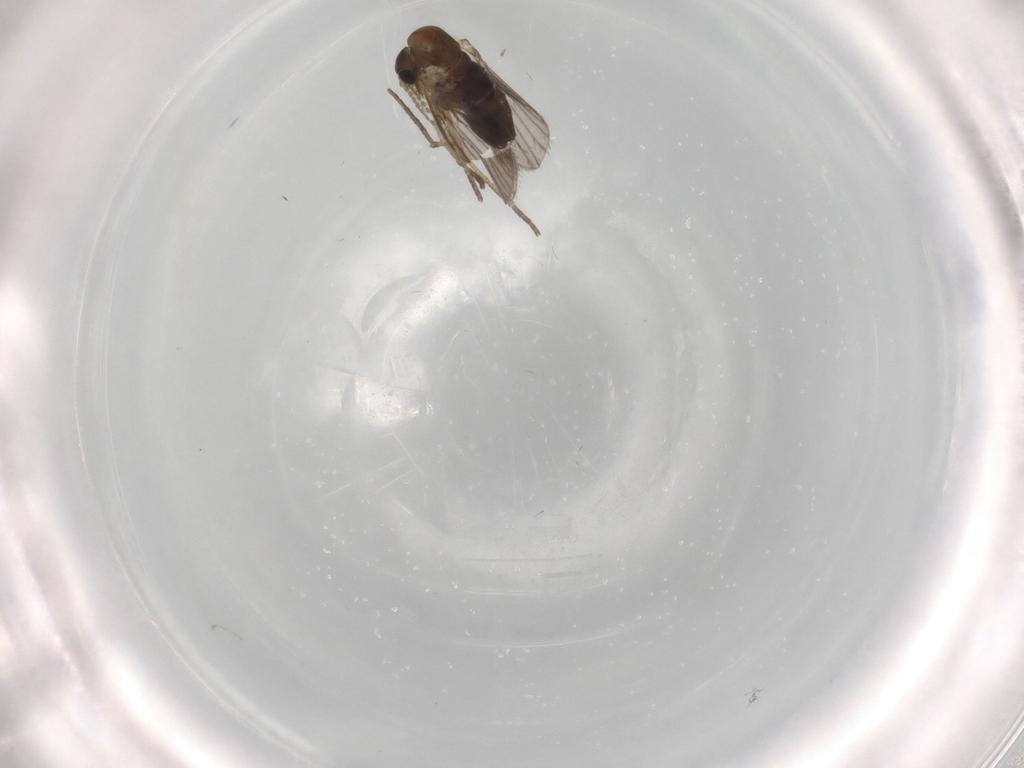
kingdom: Animalia
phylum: Arthropoda
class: Insecta
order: Diptera
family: Psychodidae
